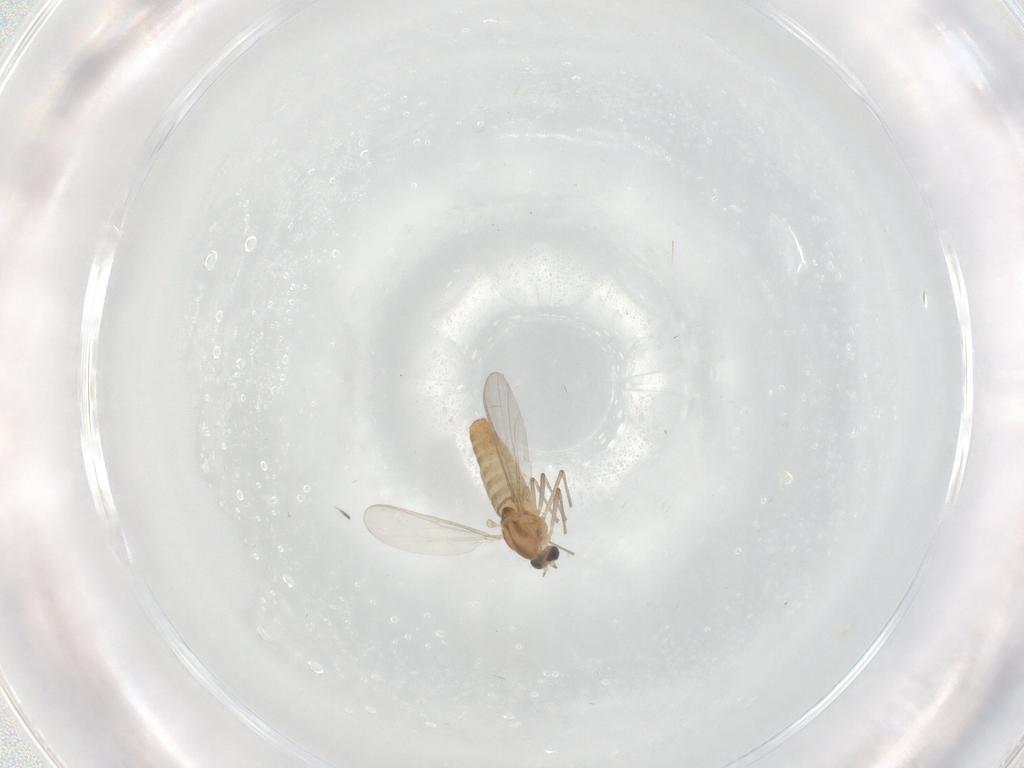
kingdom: Animalia
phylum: Arthropoda
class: Insecta
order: Diptera
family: Chironomidae
